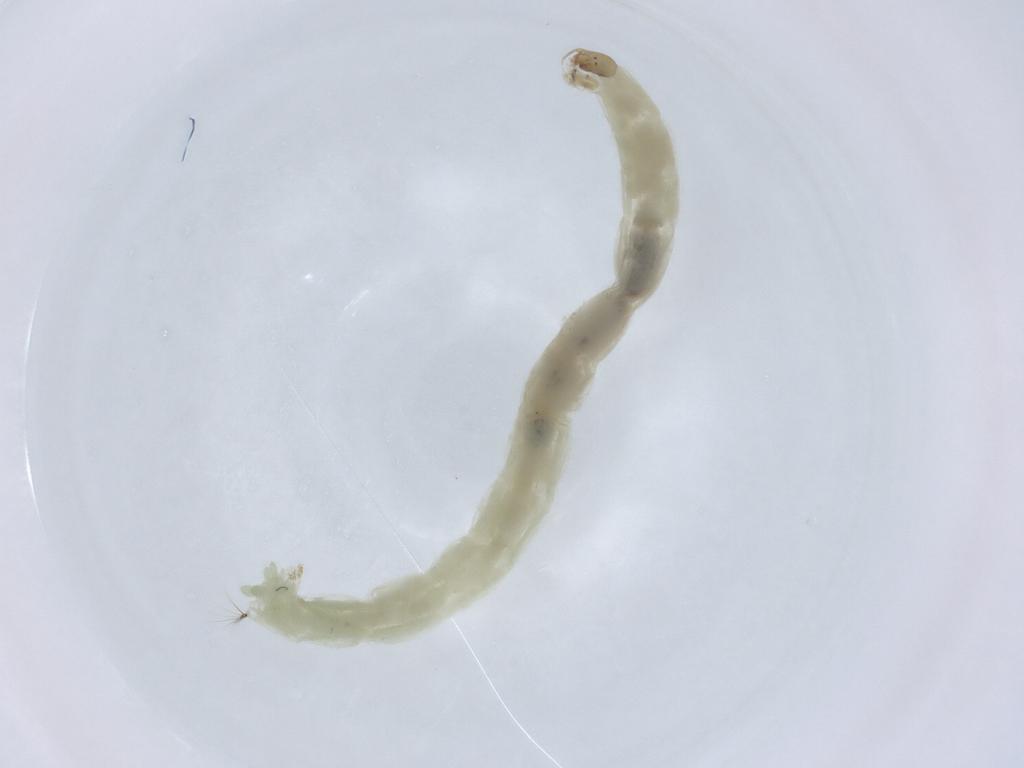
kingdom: Animalia
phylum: Arthropoda
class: Insecta
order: Diptera
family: Chironomidae
